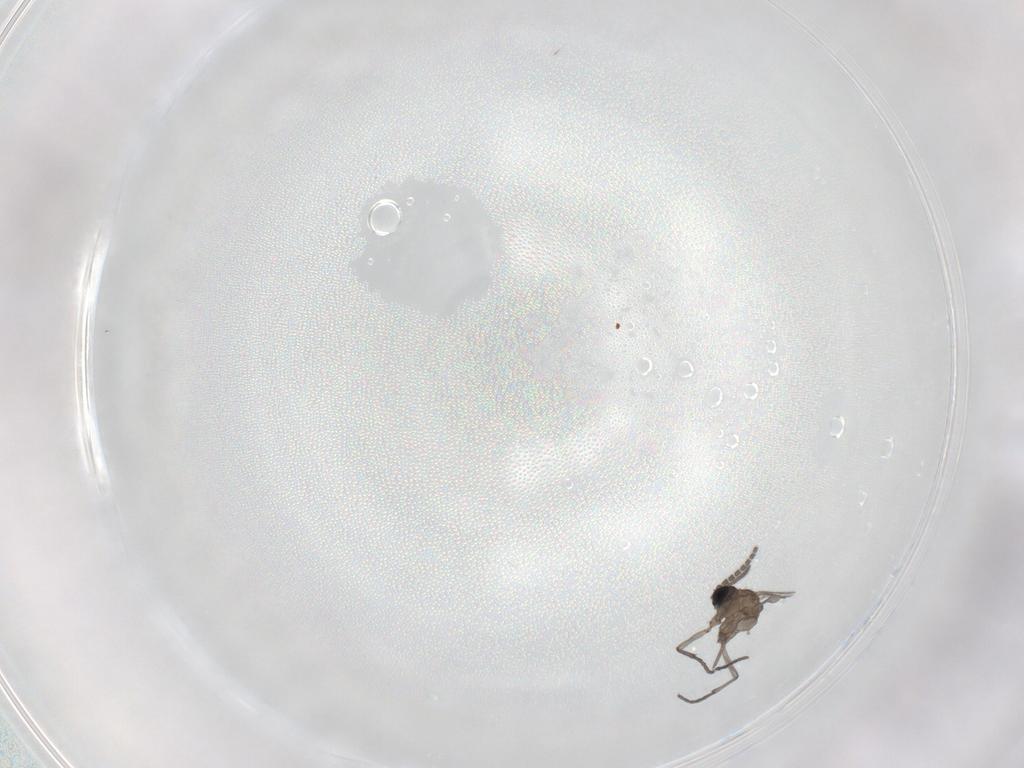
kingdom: Animalia
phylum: Arthropoda
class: Insecta
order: Diptera
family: Sciaridae
